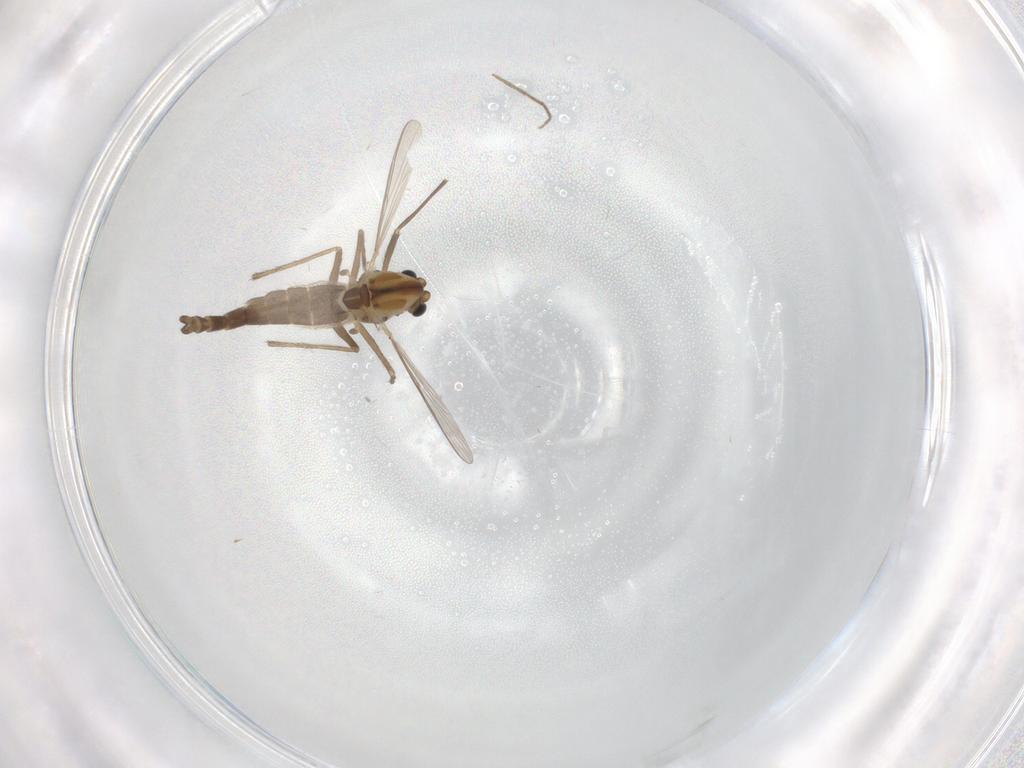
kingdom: Animalia
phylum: Arthropoda
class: Insecta
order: Diptera
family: Chironomidae
